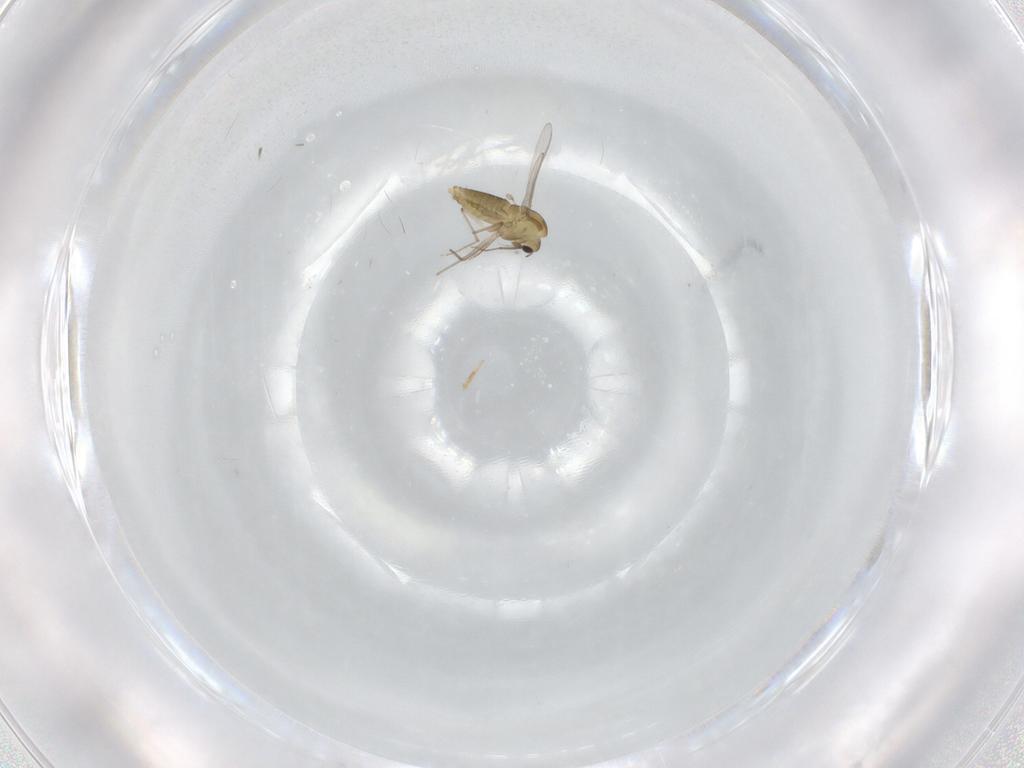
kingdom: Animalia
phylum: Arthropoda
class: Insecta
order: Diptera
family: Chironomidae
